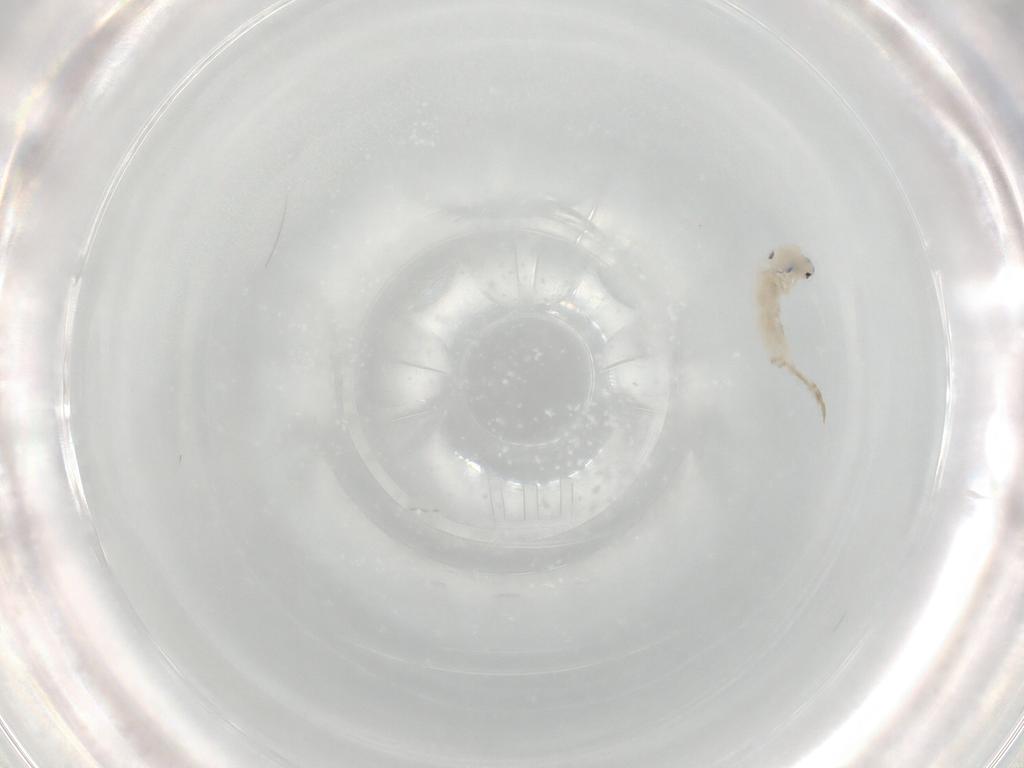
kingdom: Animalia
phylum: Arthropoda
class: Collembola
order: Entomobryomorpha
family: Entomobryidae
